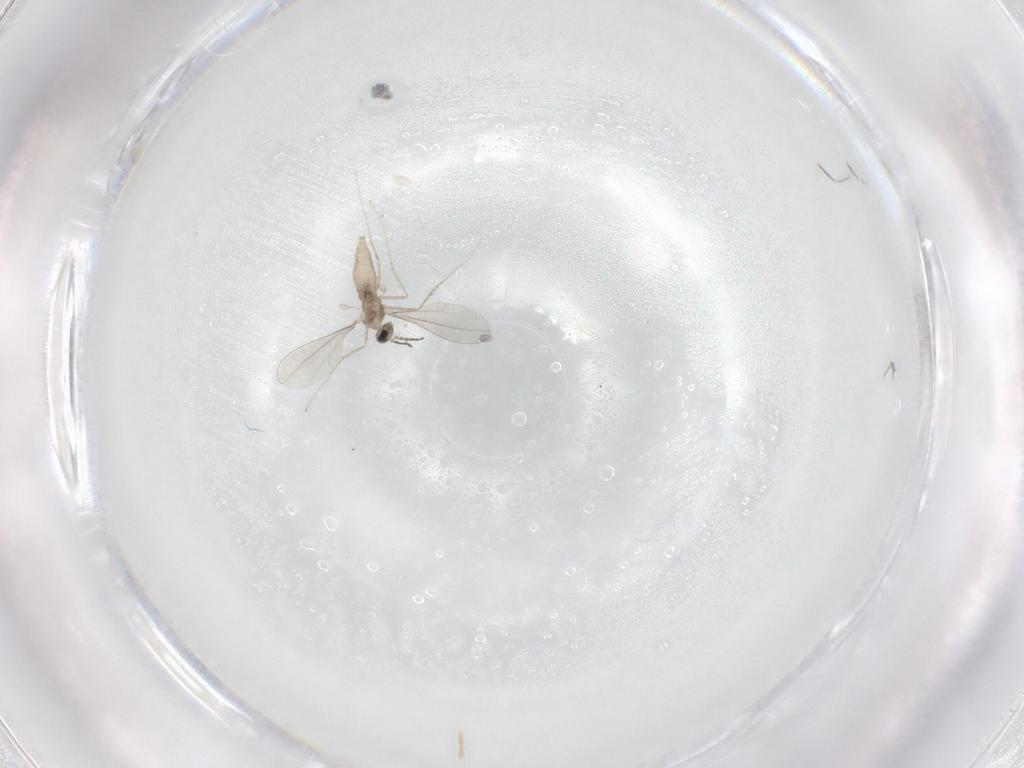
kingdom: Animalia
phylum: Arthropoda
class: Insecta
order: Diptera
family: Cecidomyiidae
